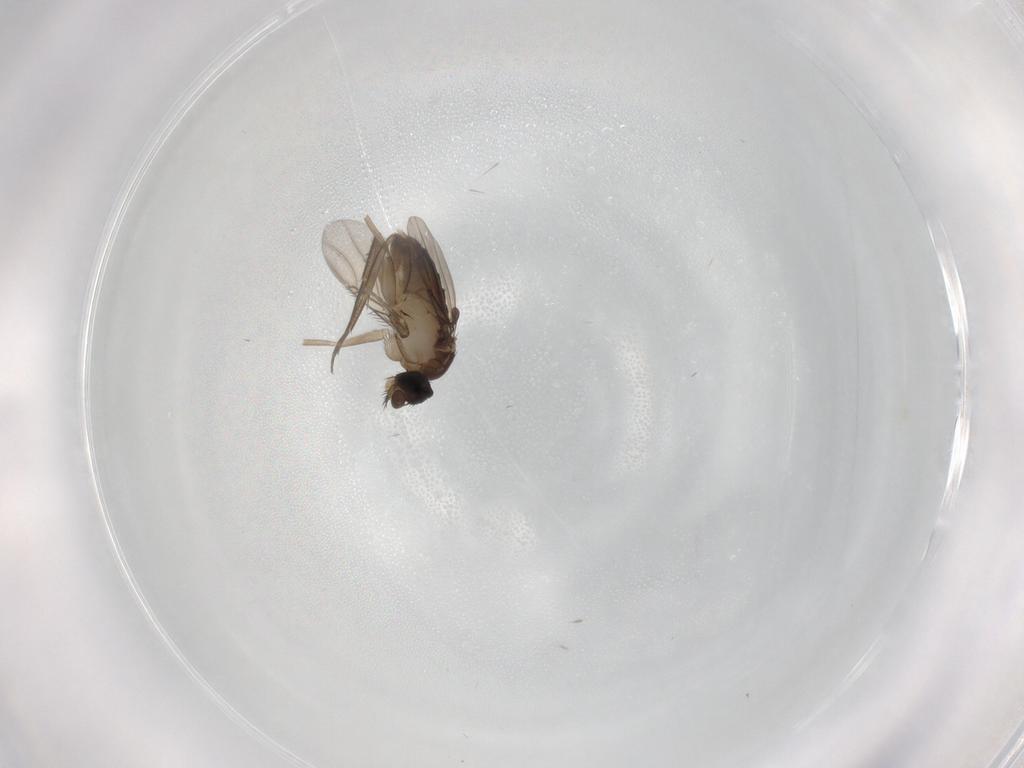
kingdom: Animalia
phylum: Arthropoda
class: Insecta
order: Diptera
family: Phoridae
